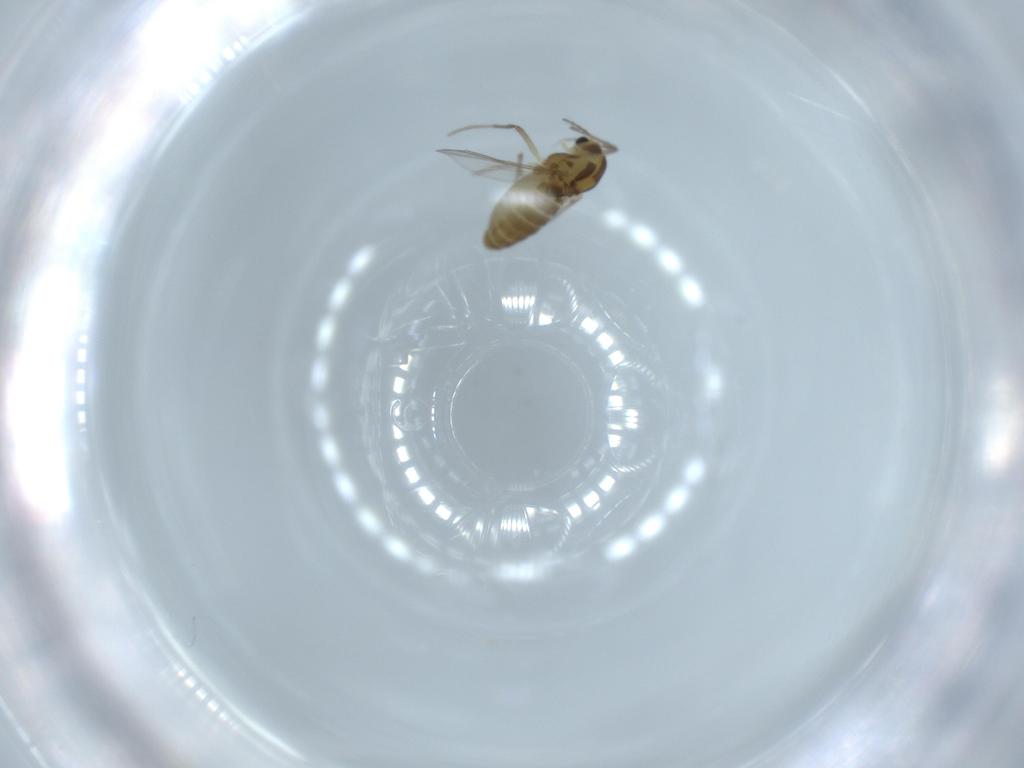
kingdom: Animalia
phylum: Arthropoda
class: Insecta
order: Diptera
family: Chironomidae
